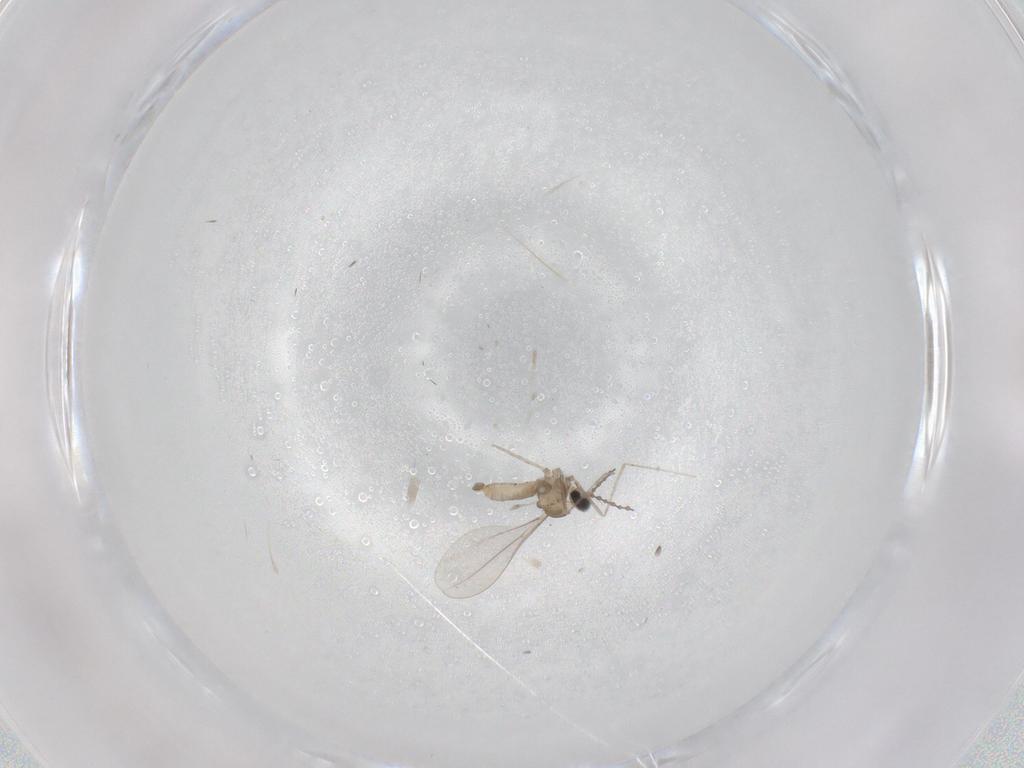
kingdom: Animalia
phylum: Arthropoda
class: Insecta
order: Diptera
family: Cecidomyiidae
